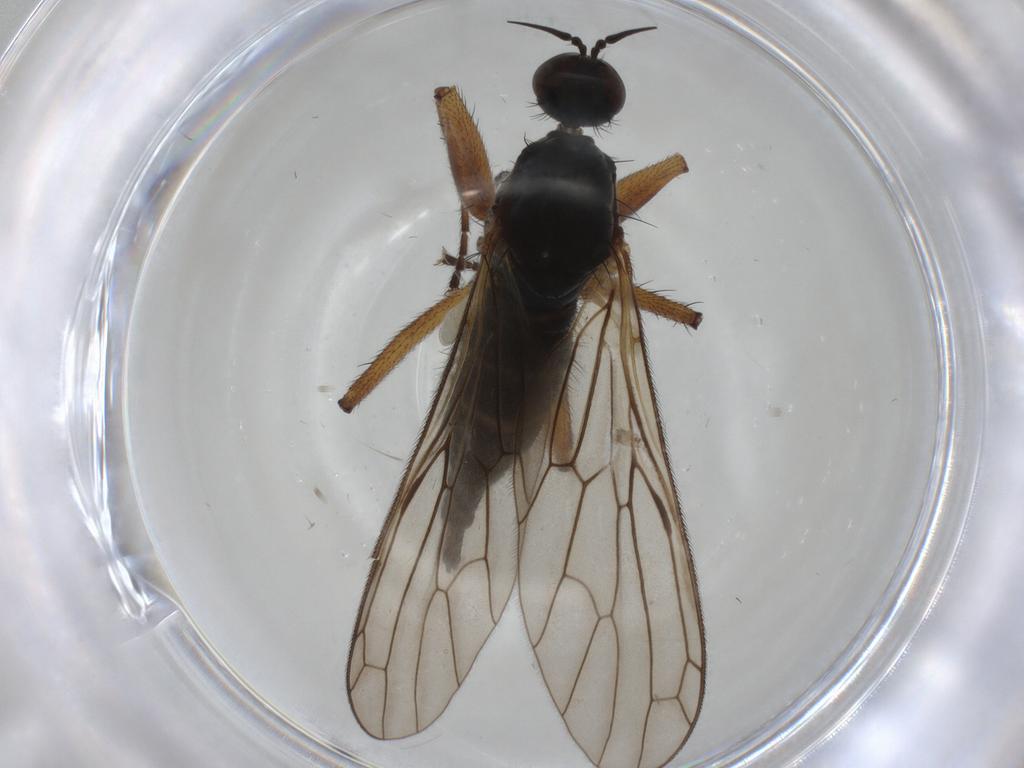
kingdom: Animalia
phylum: Arthropoda
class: Insecta
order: Diptera
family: Empididae
